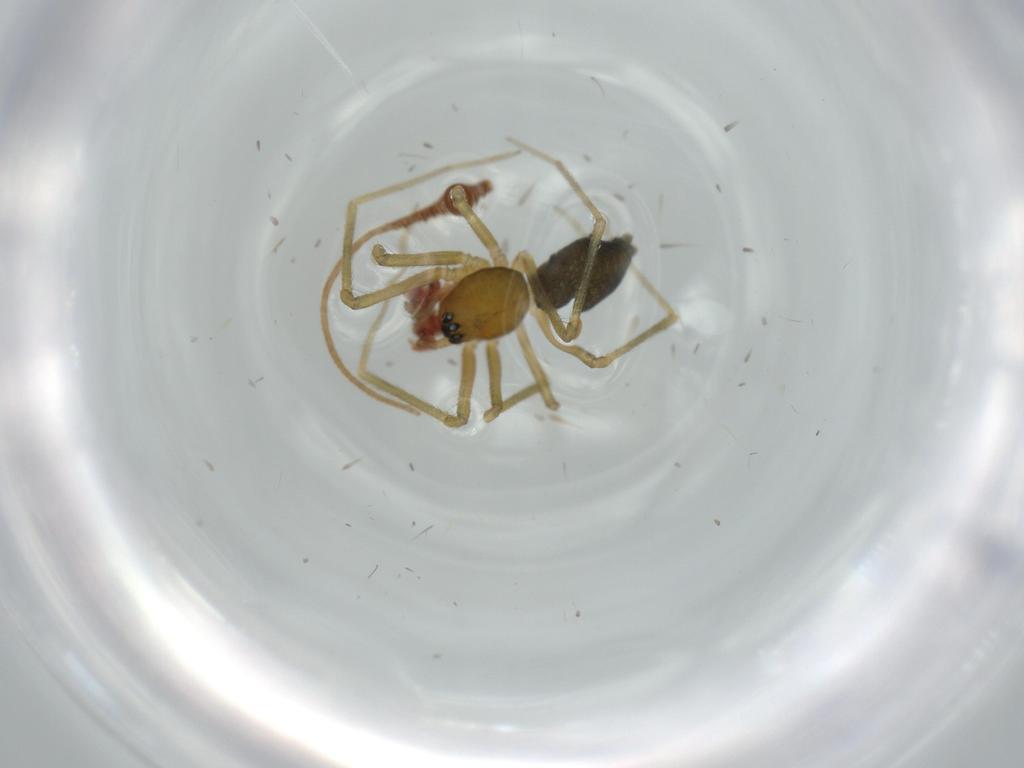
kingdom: Animalia
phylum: Arthropoda
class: Arachnida
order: Araneae
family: Linyphiidae
